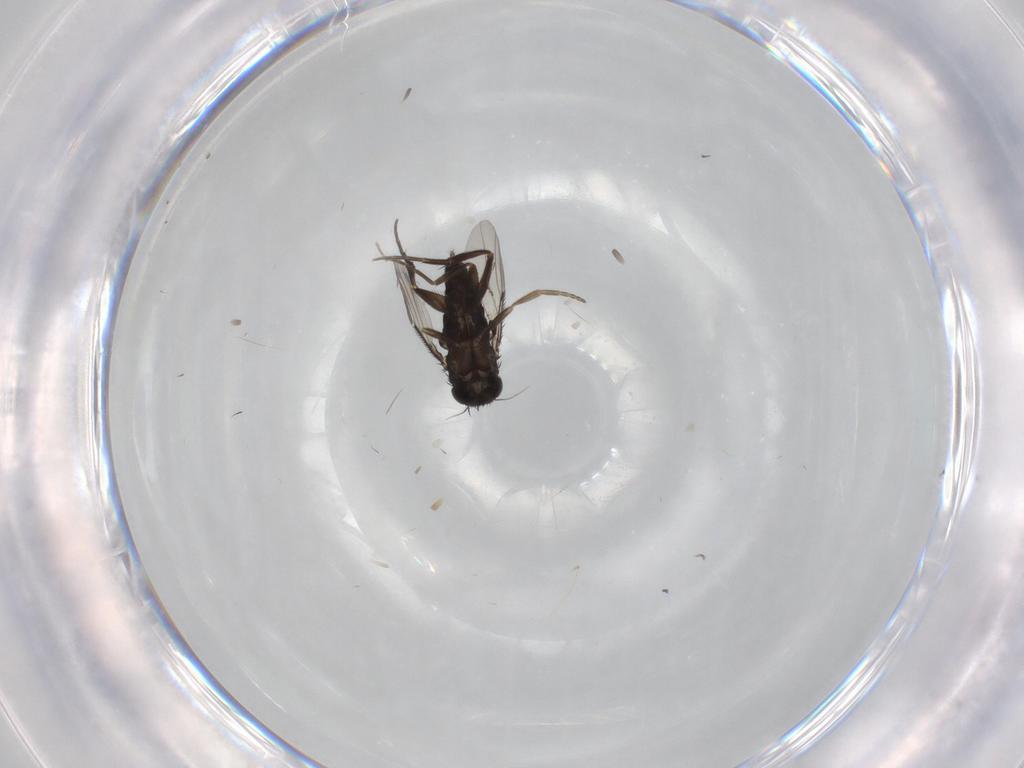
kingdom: Animalia
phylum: Arthropoda
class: Insecta
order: Diptera
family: Phoridae
